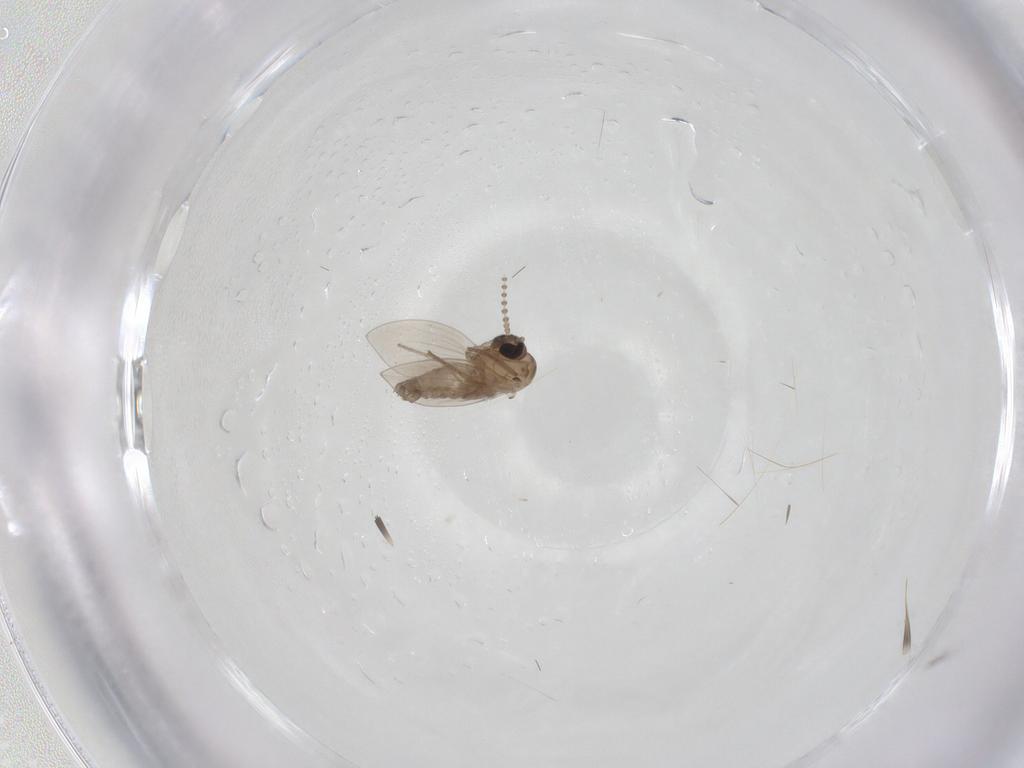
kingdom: Animalia
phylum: Arthropoda
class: Insecta
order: Diptera
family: Psychodidae
